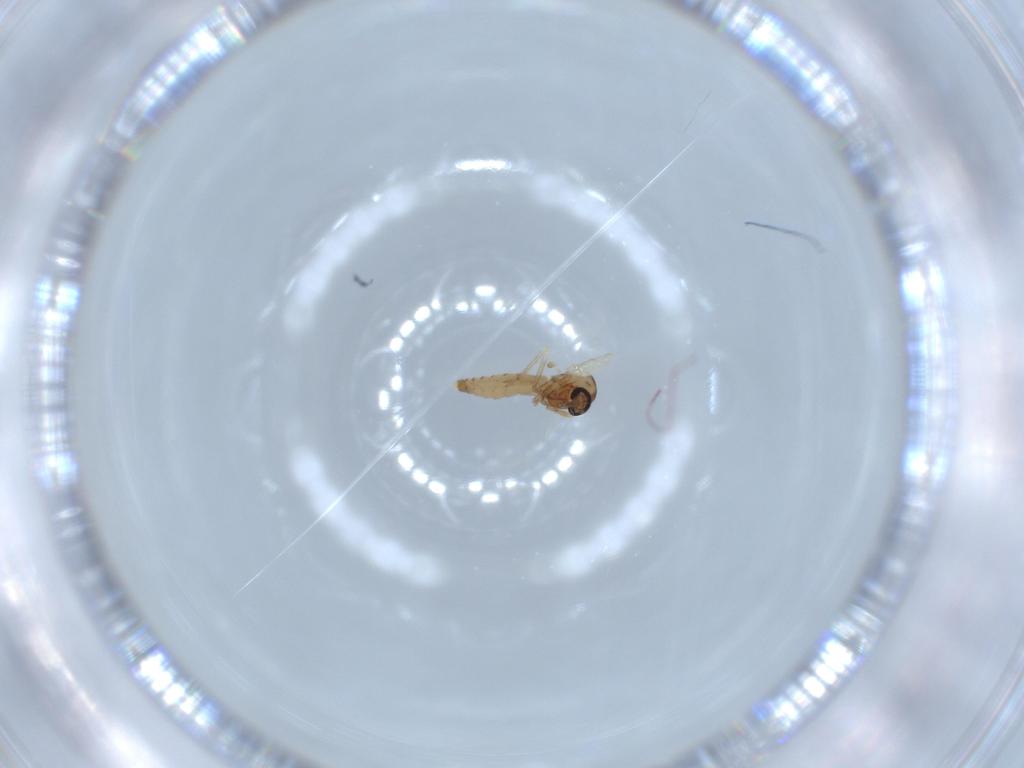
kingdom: Animalia
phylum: Arthropoda
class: Insecta
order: Diptera
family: Ceratopogonidae
